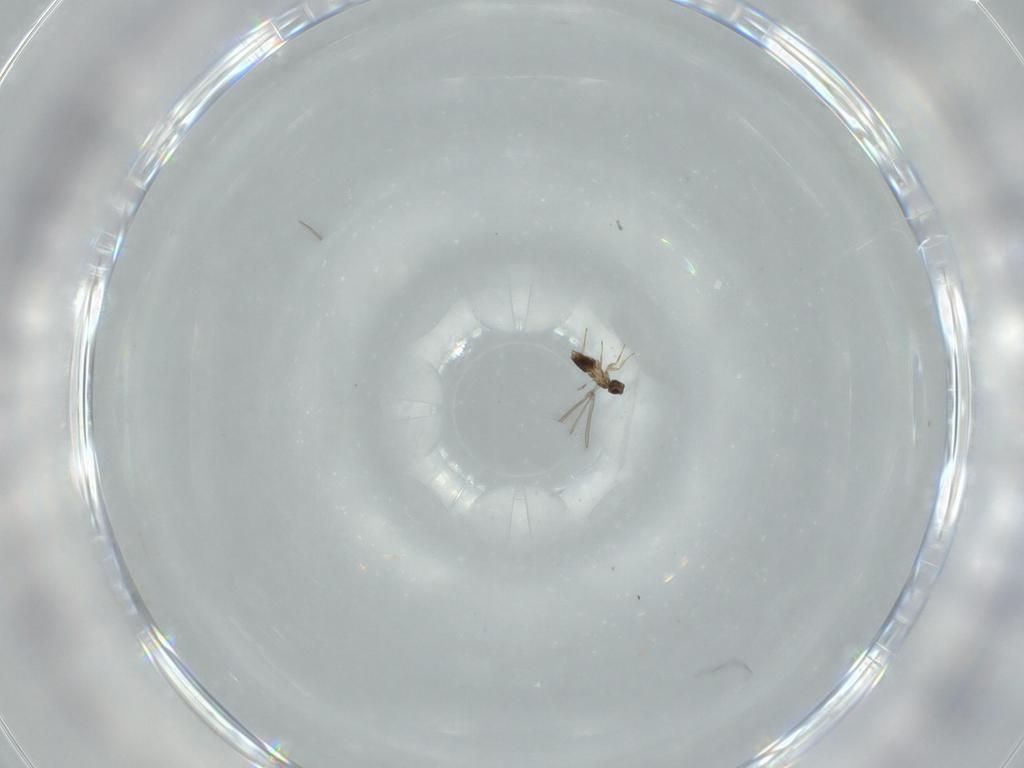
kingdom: Animalia
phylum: Arthropoda
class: Insecta
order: Hymenoptera
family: Mymaridae
